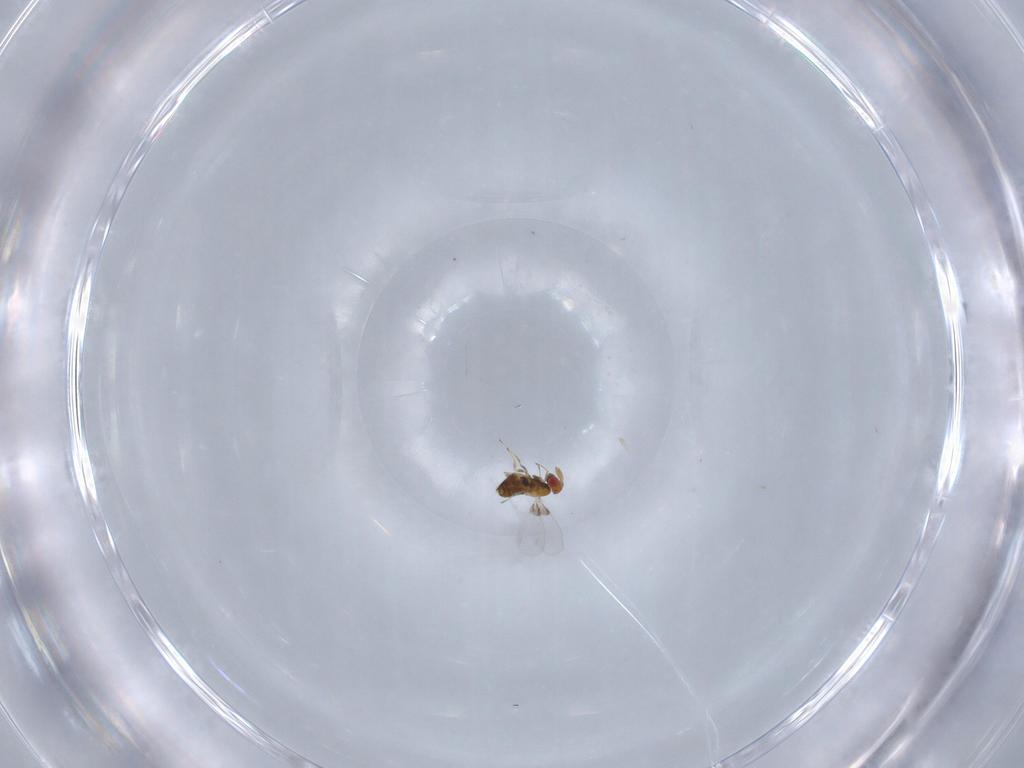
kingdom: Animalia
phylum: Arthropoda
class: Insecta
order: Hymenoptera
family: Trichogrammatidae
